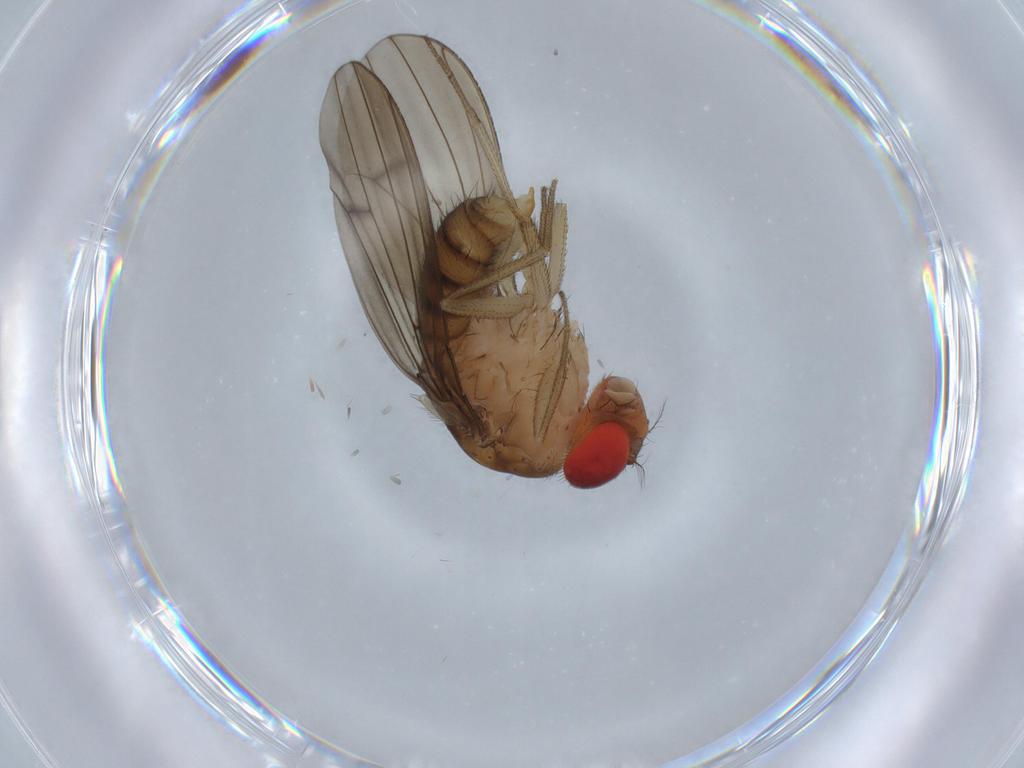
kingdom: Animalia
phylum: Arthropoda
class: Insecta
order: Diptera
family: Drosophilidae
